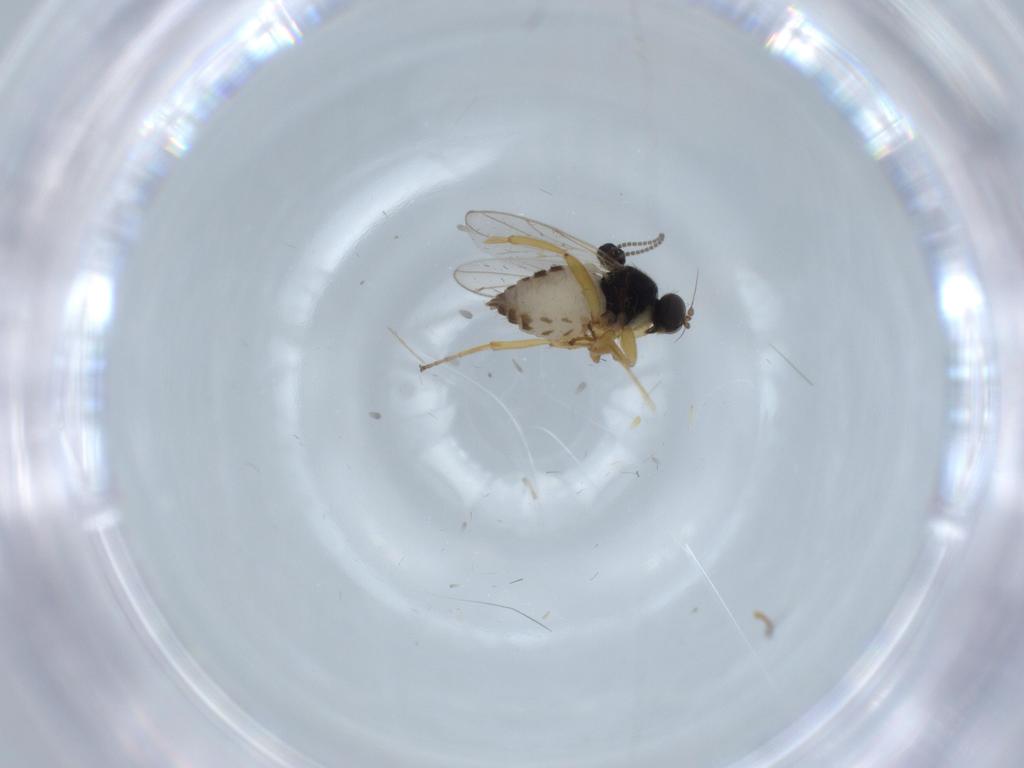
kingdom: Animalia
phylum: Arthropoda
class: Insecta
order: Diptera
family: Hybotidae
